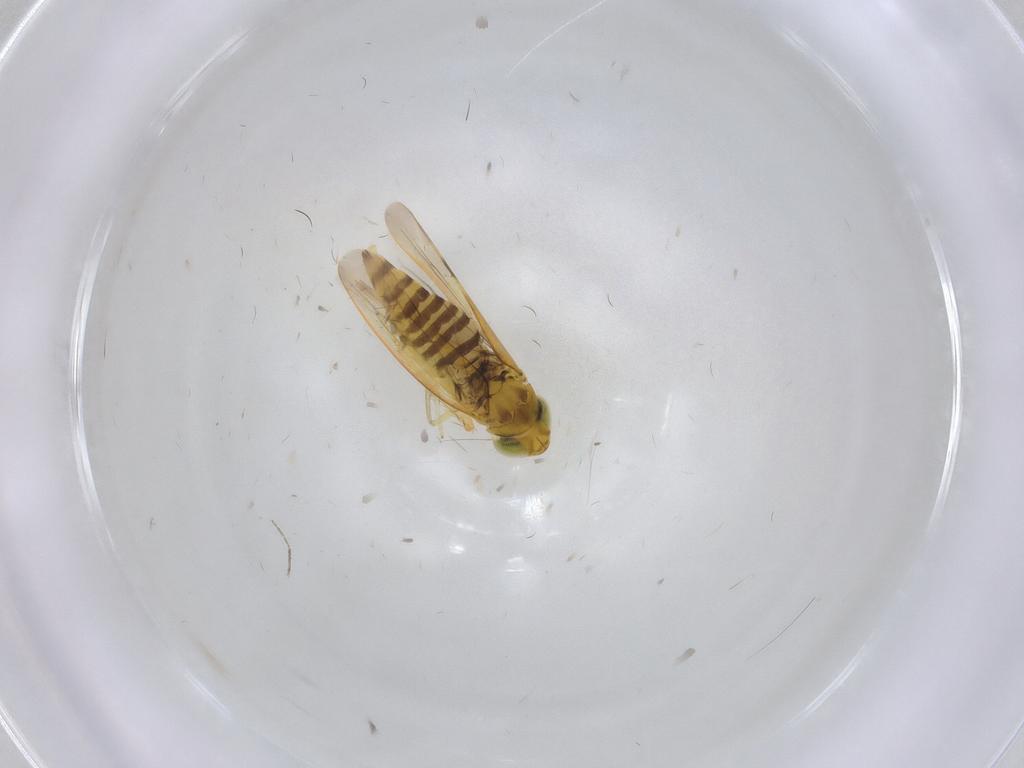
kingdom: Animalia
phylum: Arthropoda
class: Insecta
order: Hemiptera
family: Cicadellidae
